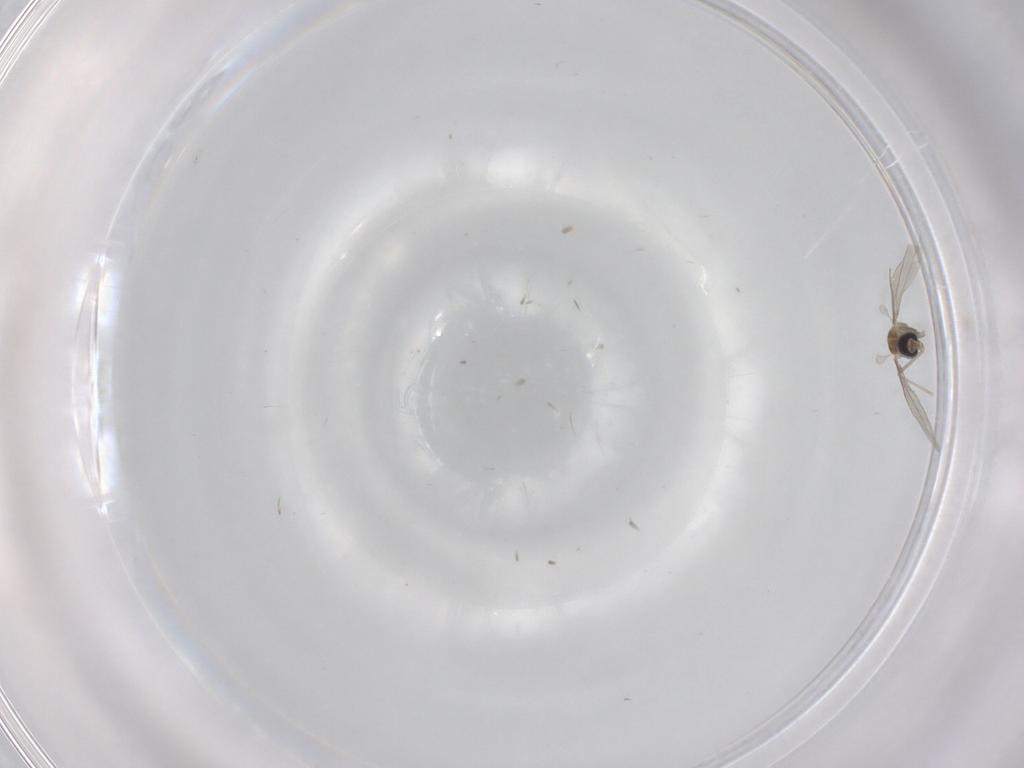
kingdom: Animalia
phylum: Arthropoda
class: Insecta
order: Diptera
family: Cecidomyiidae
